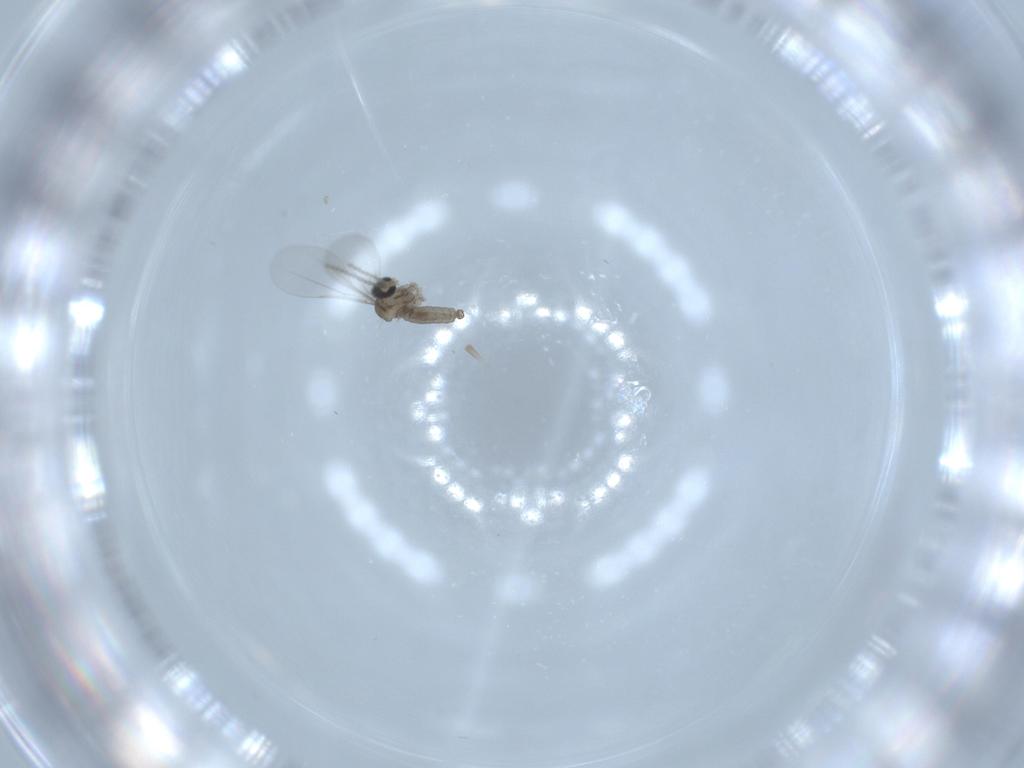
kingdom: Animalia
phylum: Arthropoda
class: Insecta
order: Diptera
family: Cecidomyiidae
